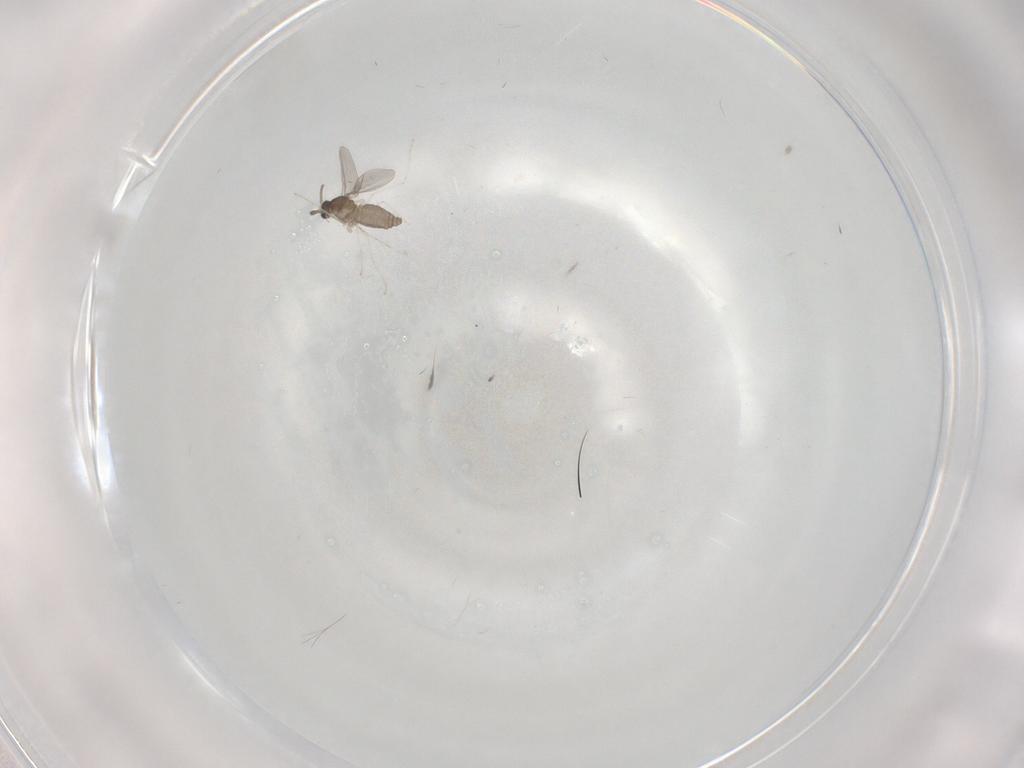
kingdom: Animalia
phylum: Arthropoda
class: Insecta
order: Diptera
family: Cecidomyiidae
